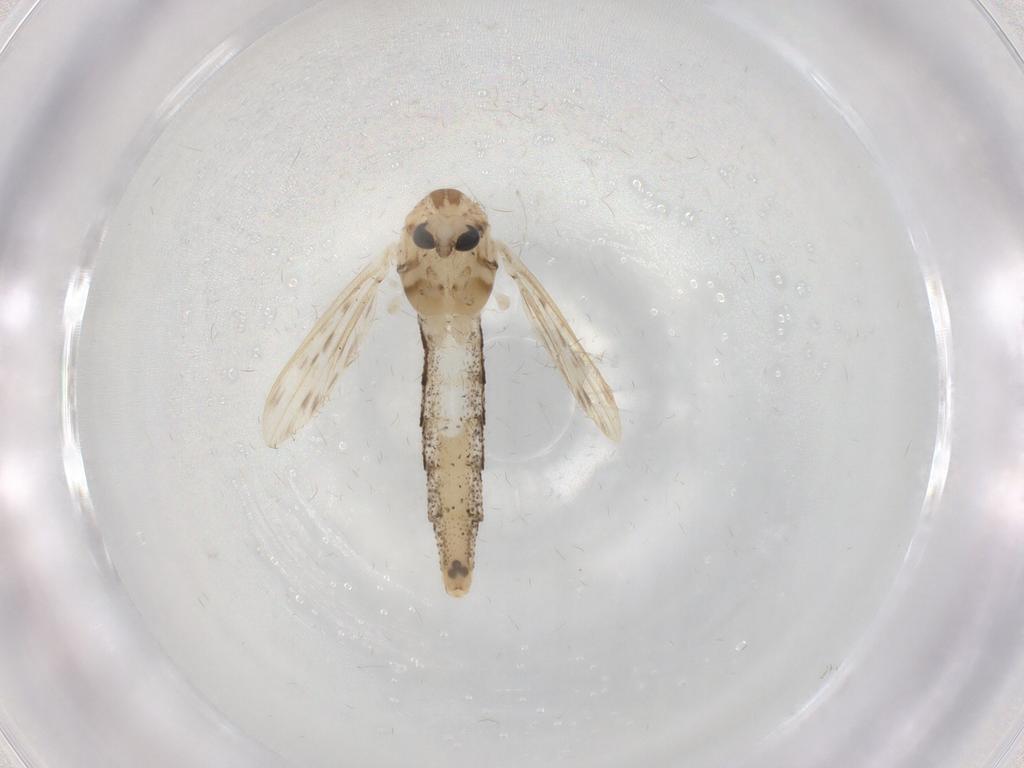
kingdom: Animalia
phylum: Arthropoda
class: Insecta
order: Diptera
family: Chaoboridae
